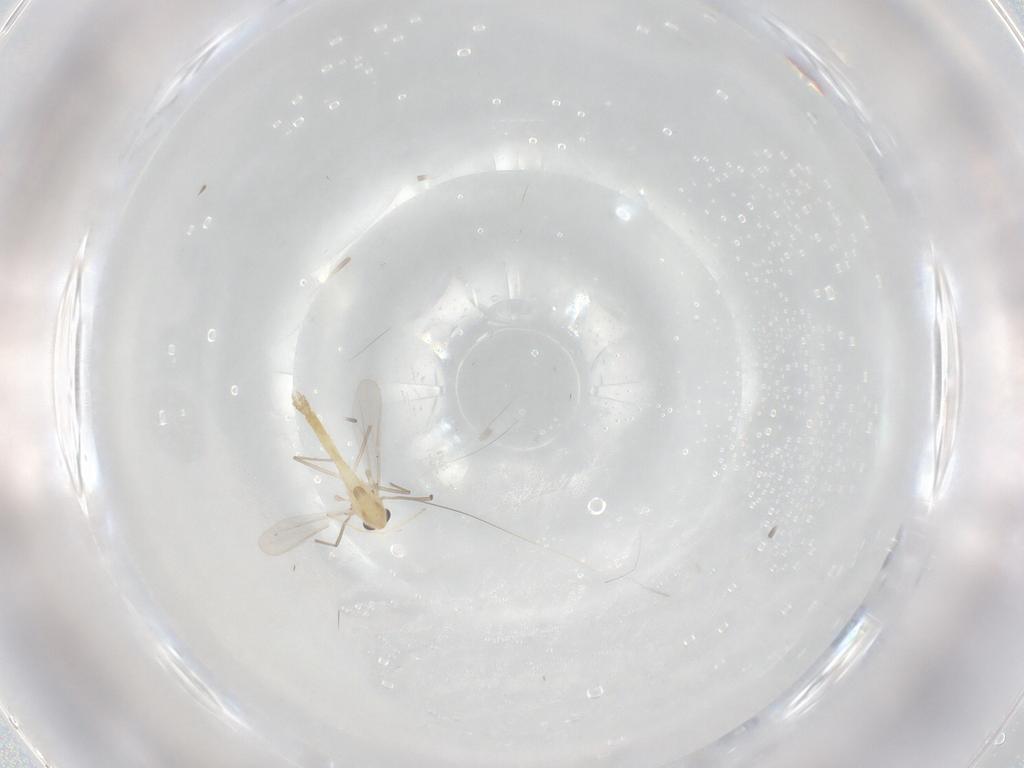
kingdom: Animalia
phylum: Arthropoda
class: Insecta
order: Diptera
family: Chironomidae
